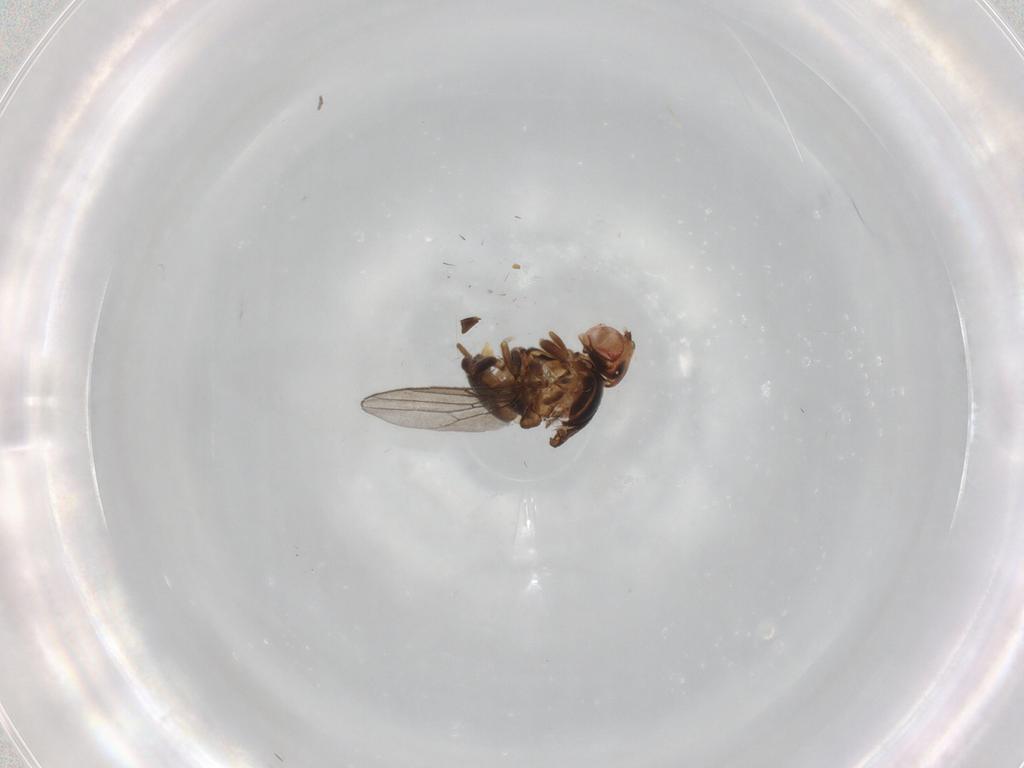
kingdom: Animalia
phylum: Arthropoda
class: Insecta
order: Diptera
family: Chloropidae
